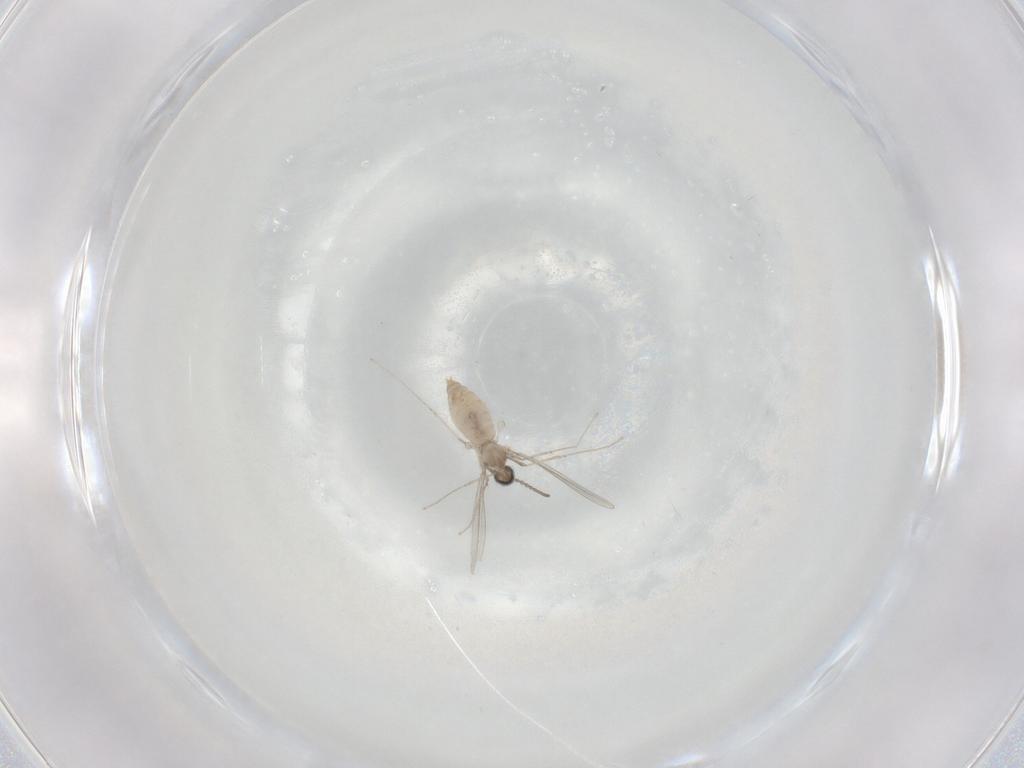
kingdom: Animalia
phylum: Arthropoda
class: Insecta
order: Diptera
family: Cecidomyiidae
